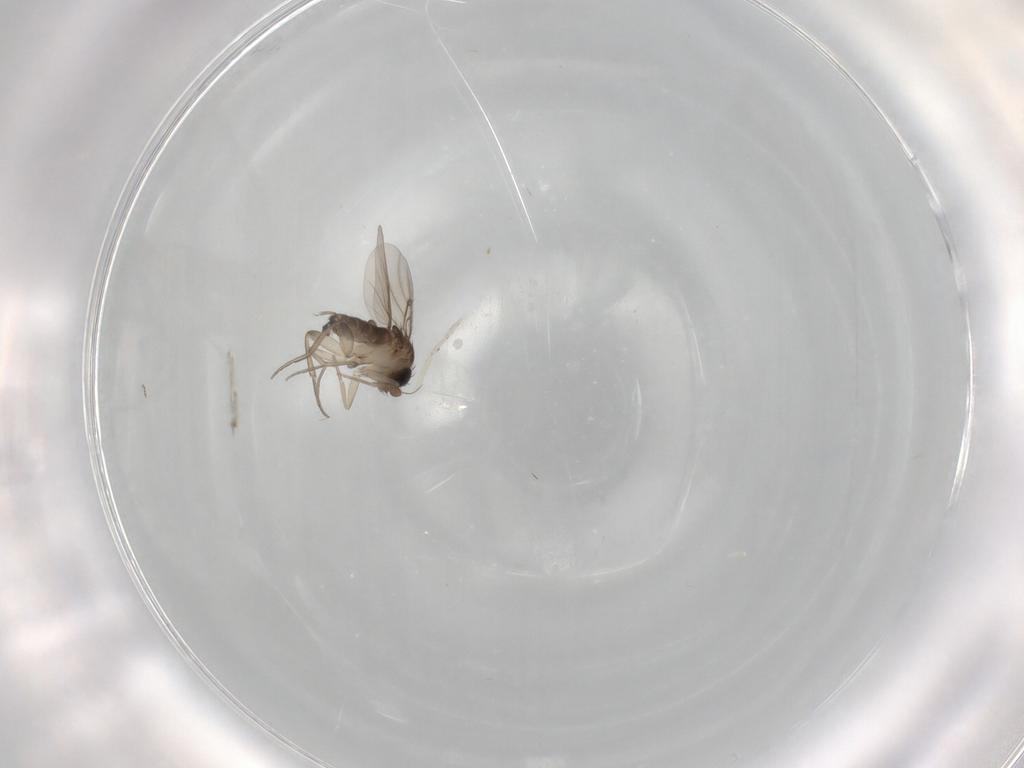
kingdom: Animalia
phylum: Arthropoda
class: Insecta
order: Diptera
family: Phoridae
